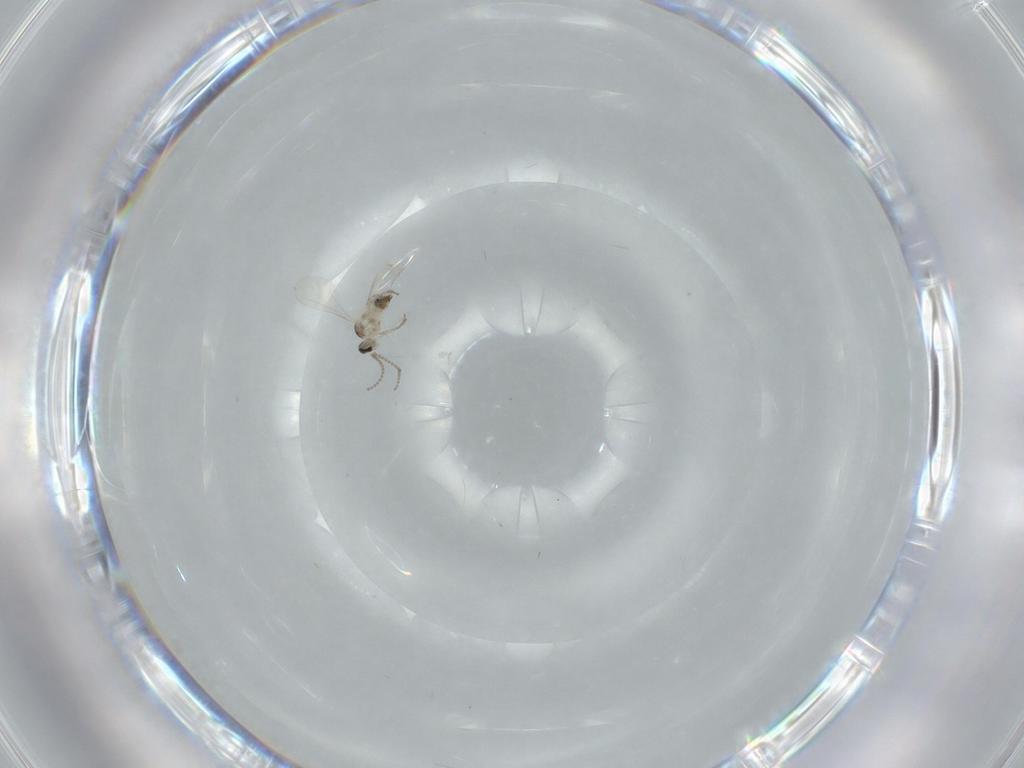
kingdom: Animalia
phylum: Arthropoda
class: Insecta
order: Diptera
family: Cecidomyiidae
